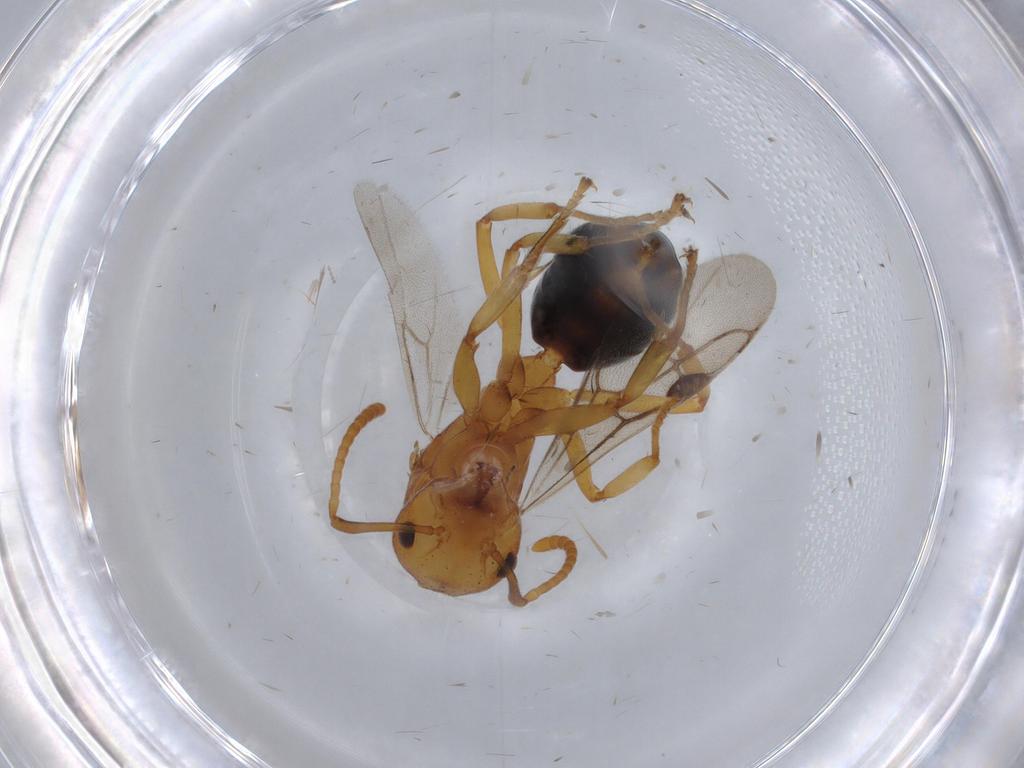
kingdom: Animalia
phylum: Arthropoda
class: Insecta
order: Hymenoptera
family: Formicidae
